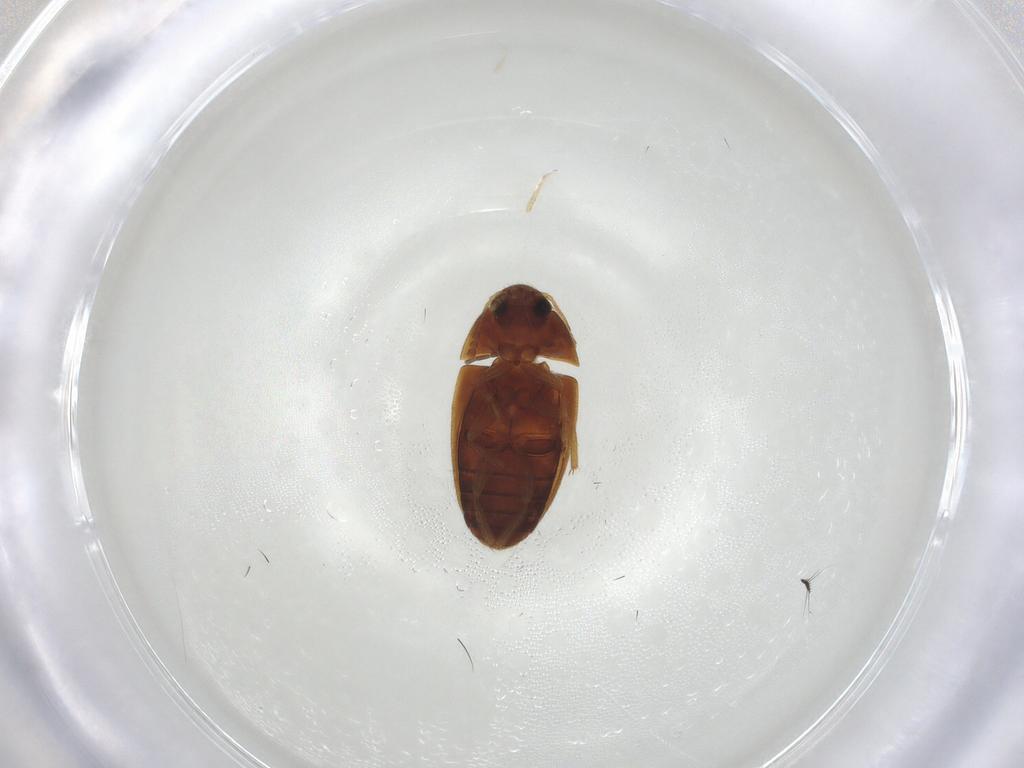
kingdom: Animalia
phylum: Arthropoda
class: Insecta
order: Coleoptera
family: Mycetophagidae
